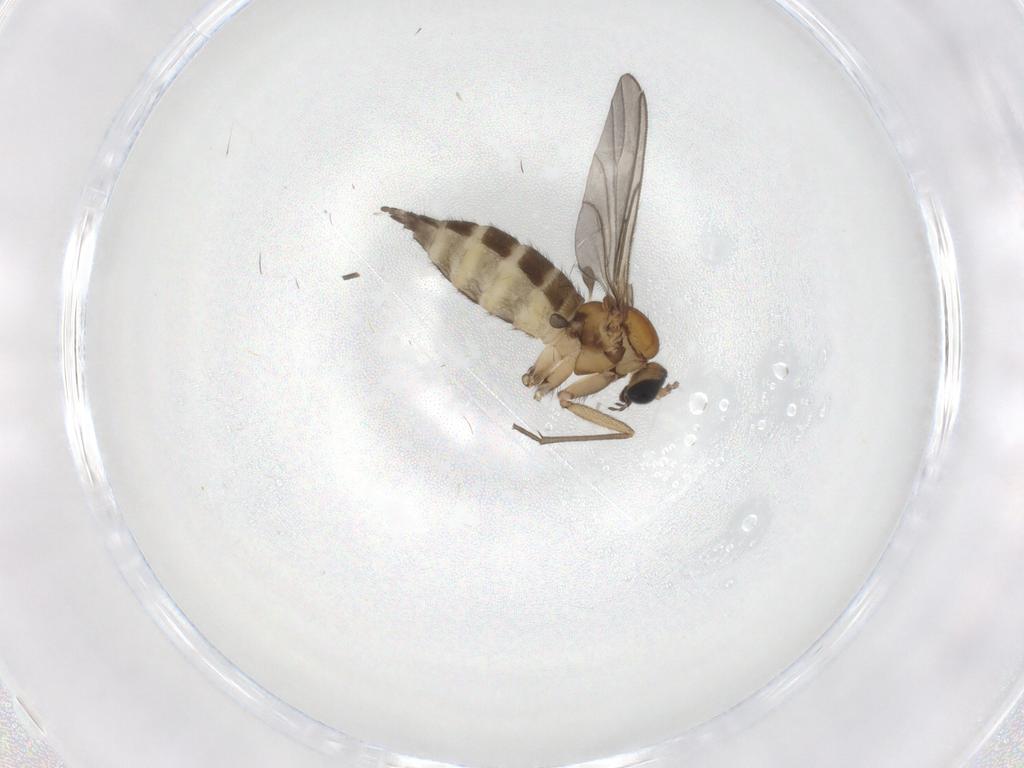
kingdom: Animalia
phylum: Arthropoda
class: Insecta
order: Diptera
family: Sciaridae
